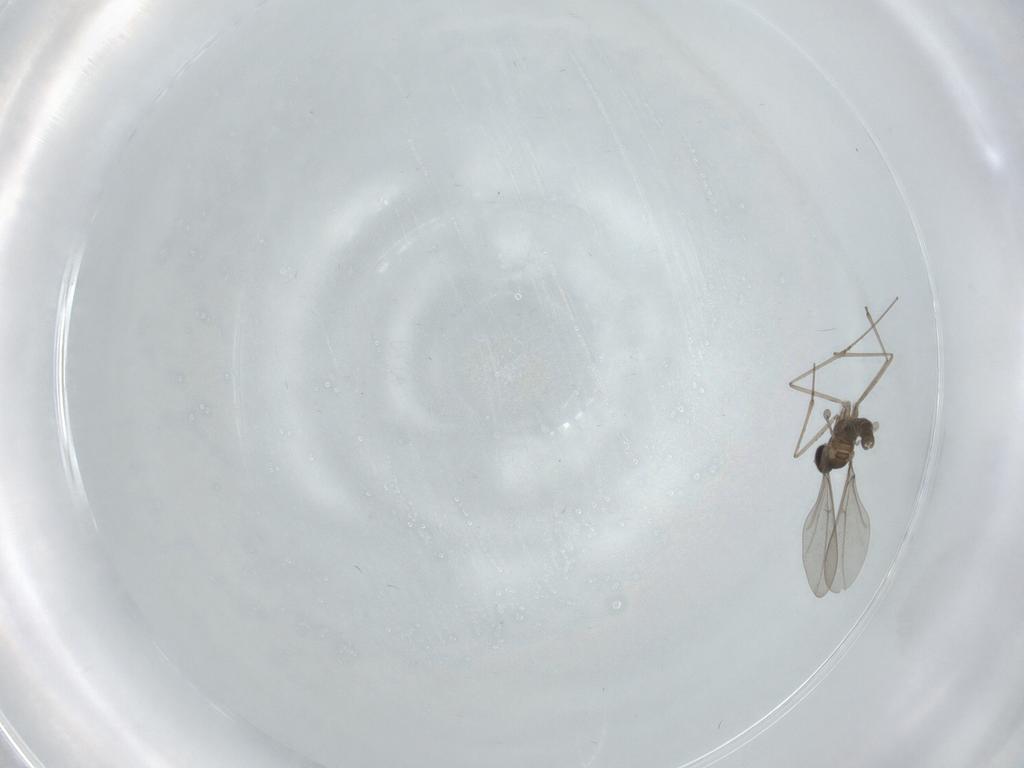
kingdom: Animalia
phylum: Arthropoda
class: Insecta
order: Diptera
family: Cecidomyiidae
